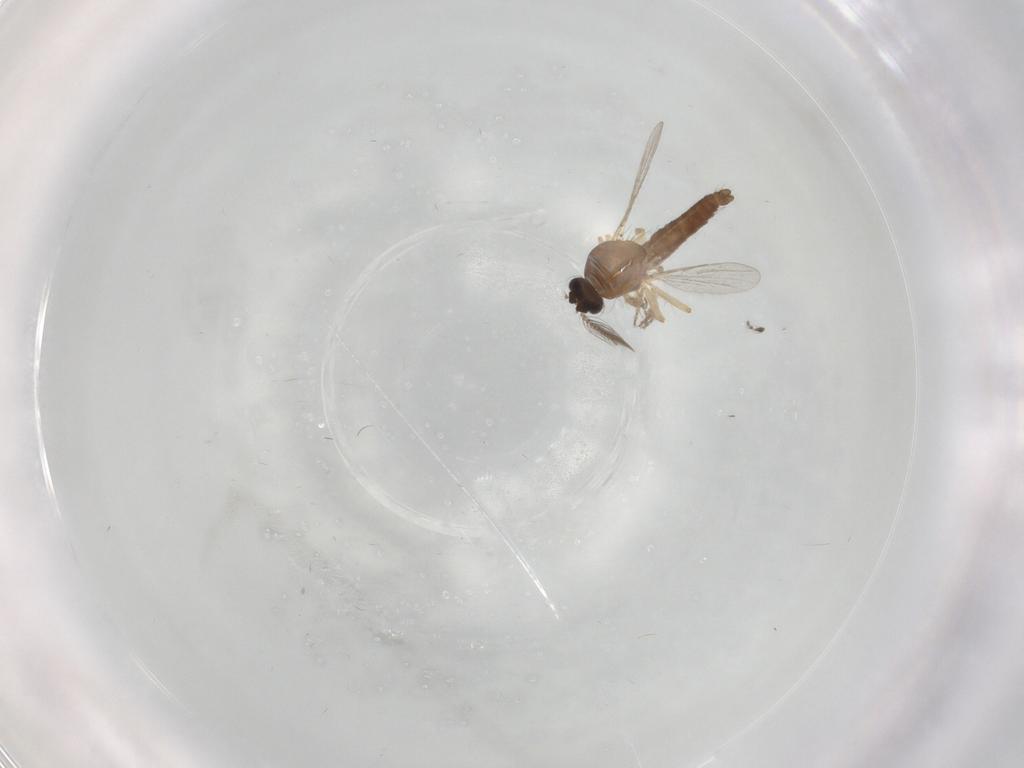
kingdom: Animalia
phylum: Arthropoda
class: Insecta
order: Diptera
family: Ceratopogonidae
